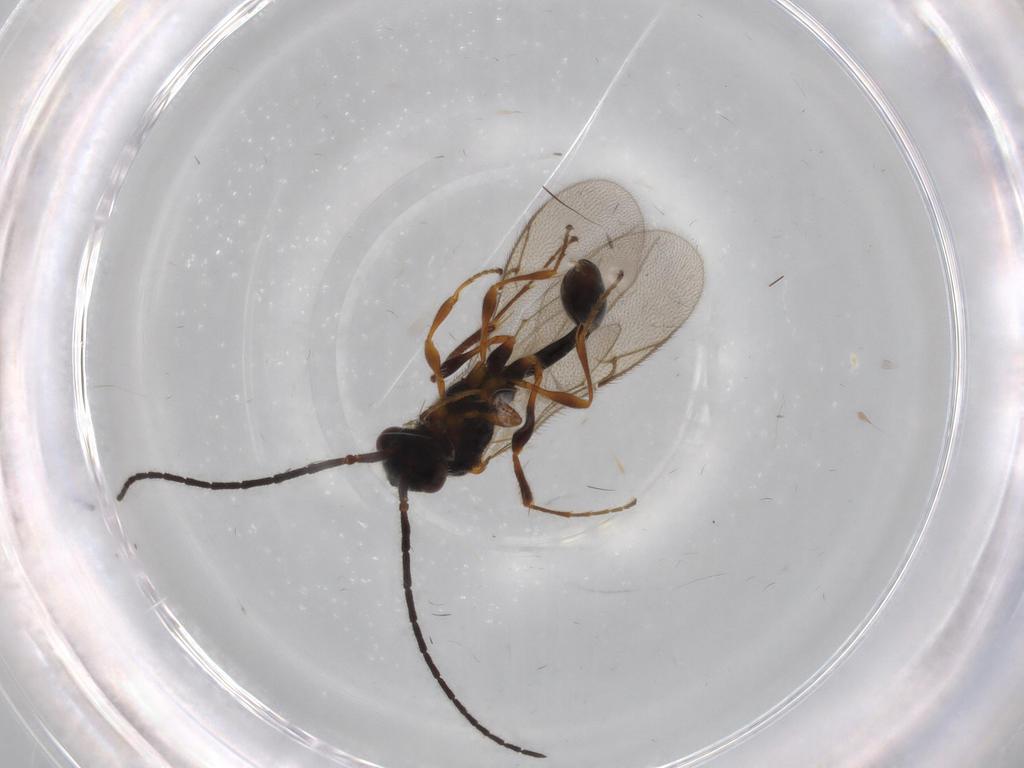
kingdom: Animalia
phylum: Arthropoda
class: Insecta
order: Hymenoptera
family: Diapriidae
